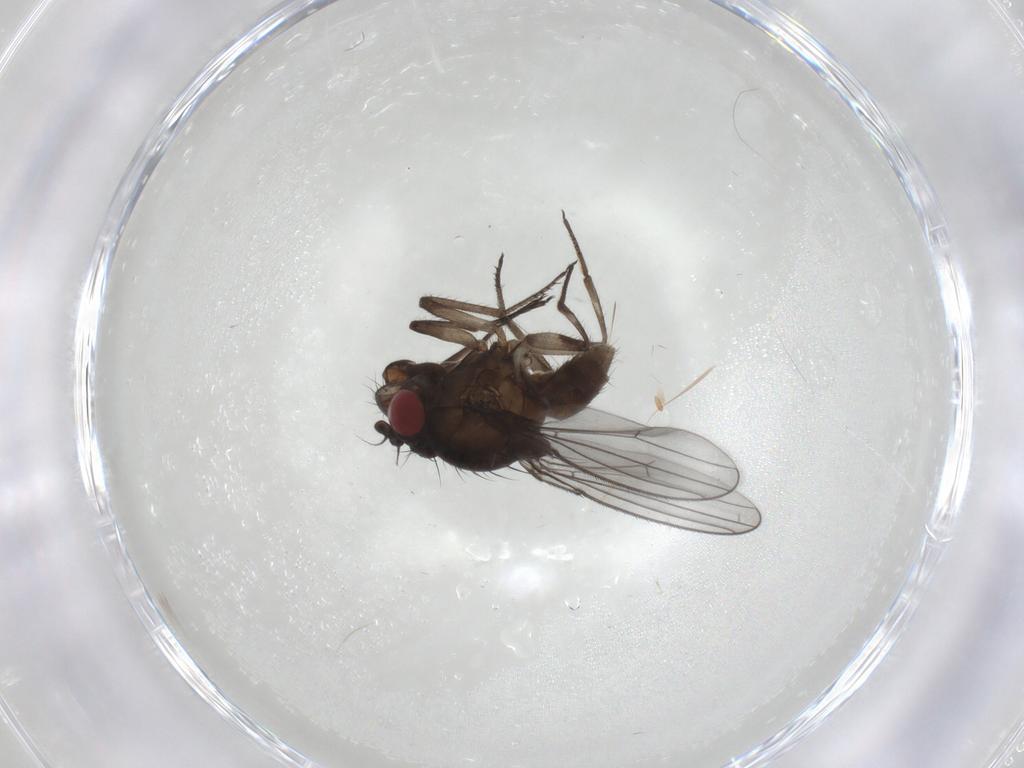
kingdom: Animalia
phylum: Arthropoda
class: Insecta
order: Diptera
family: Ephydridae
